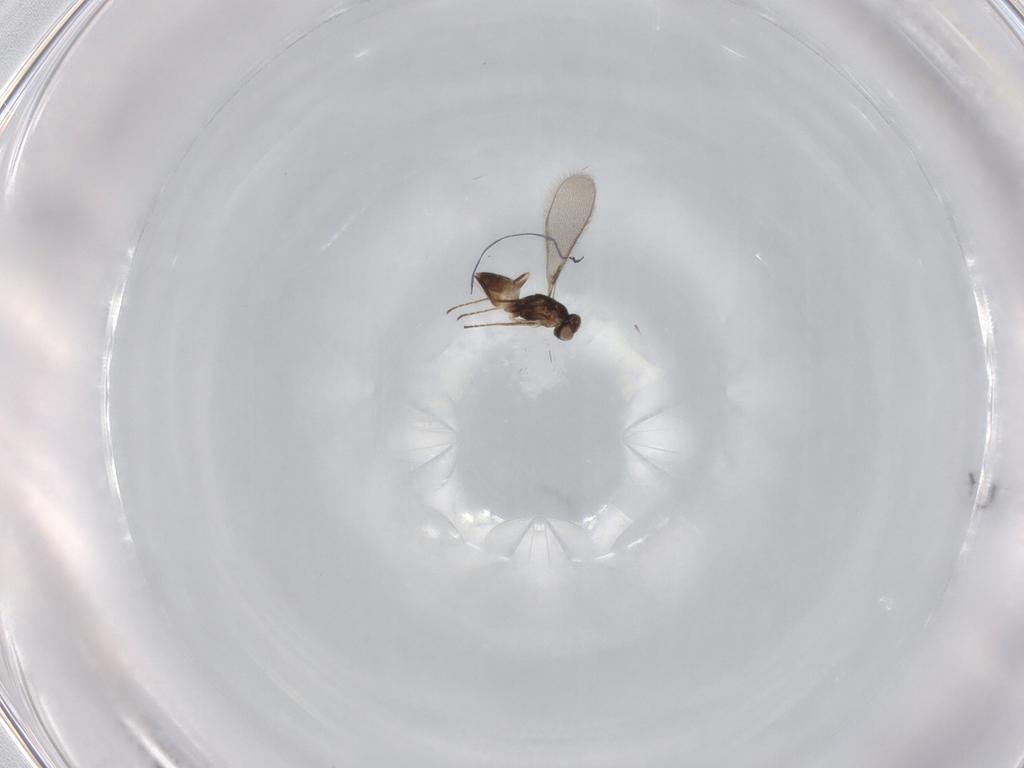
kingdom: Animalia
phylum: Arthropoda
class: Insecta
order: Hymenoptera
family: Mymaridae
